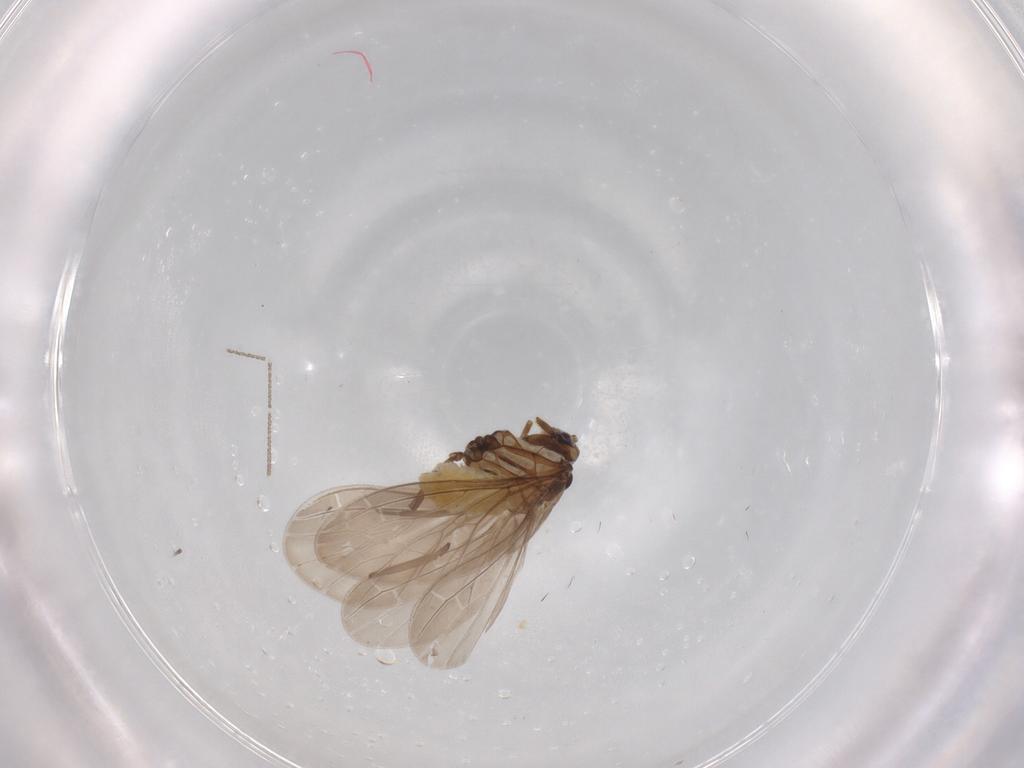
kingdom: Animalia
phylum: Arthropoda
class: Insecta
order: Neuroptera
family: Coniopterygidae
